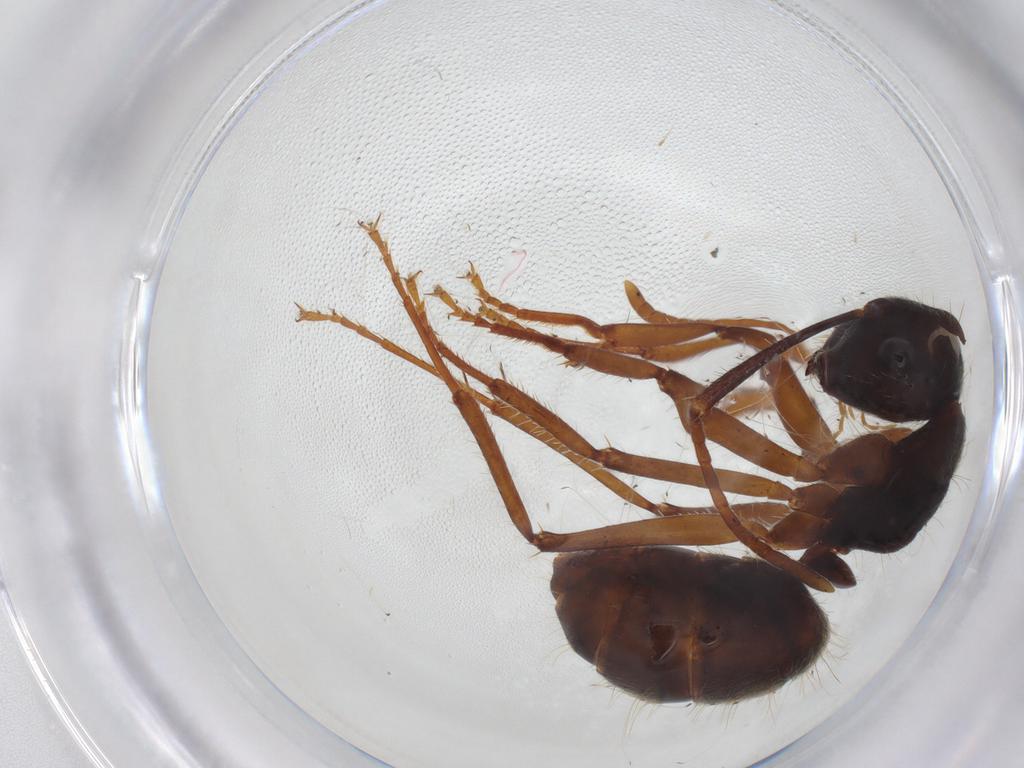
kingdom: Animalia
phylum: Arthropoda
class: Insecta
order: Hymenoptera
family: Formicidae
